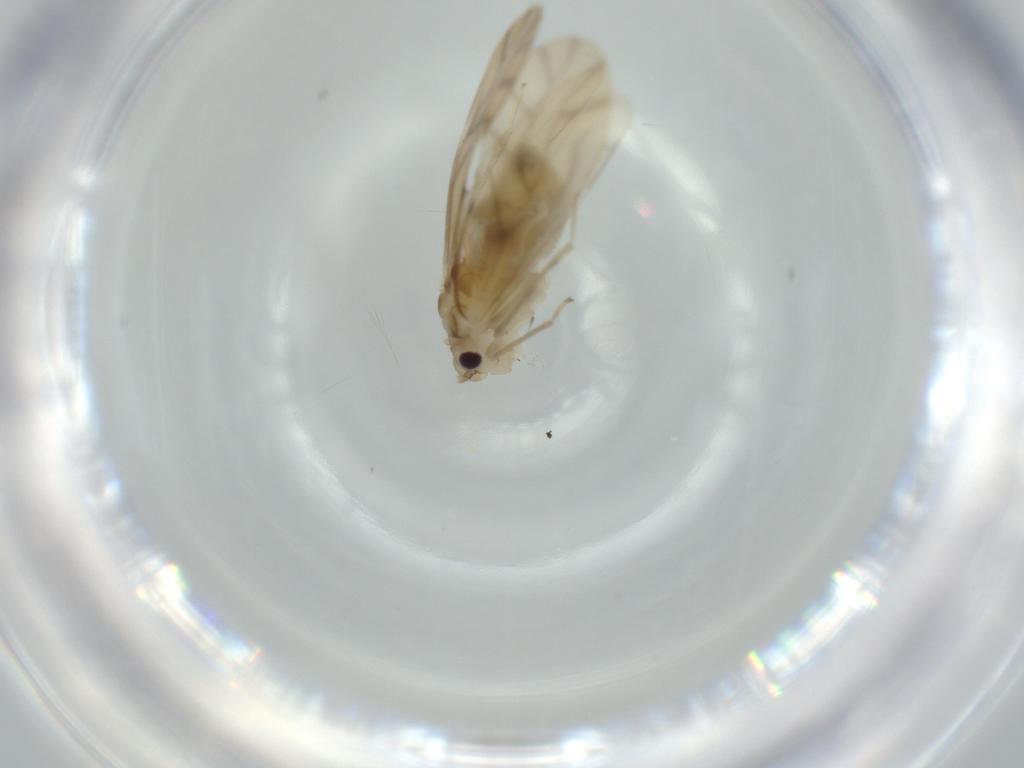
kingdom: Animalia
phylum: Arthropoda
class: Insecta
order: Psocodea
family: Caeciliusidae
